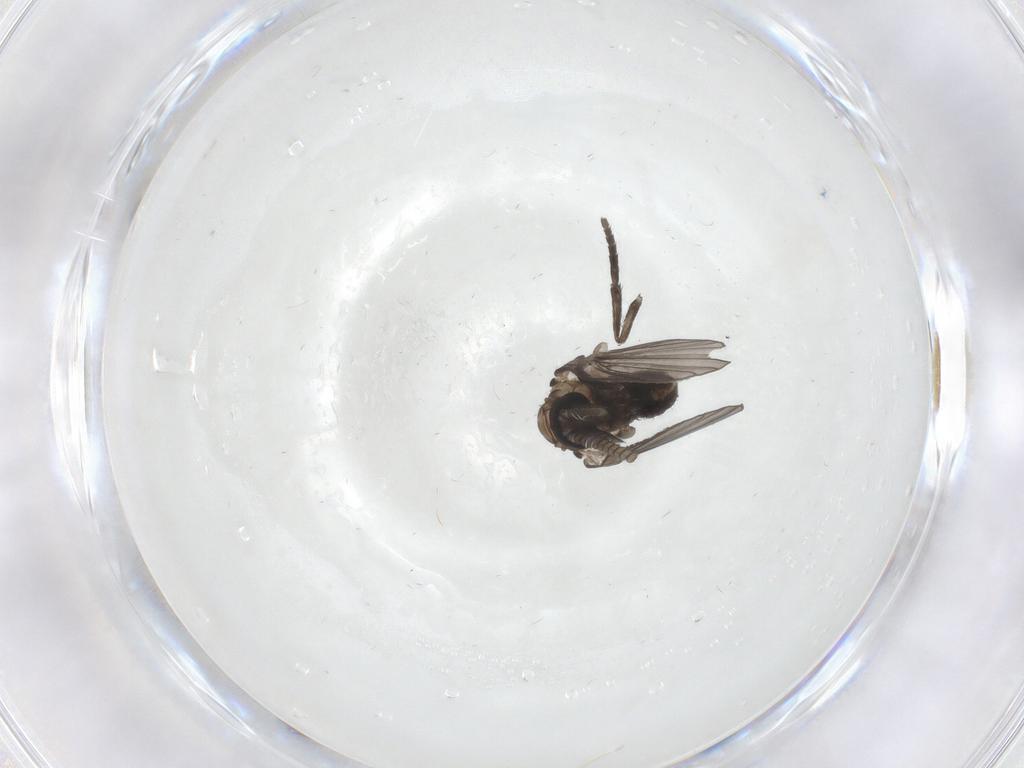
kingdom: Animalia
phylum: Arthropoda
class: Insecta
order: Diptera
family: Psychodidae
